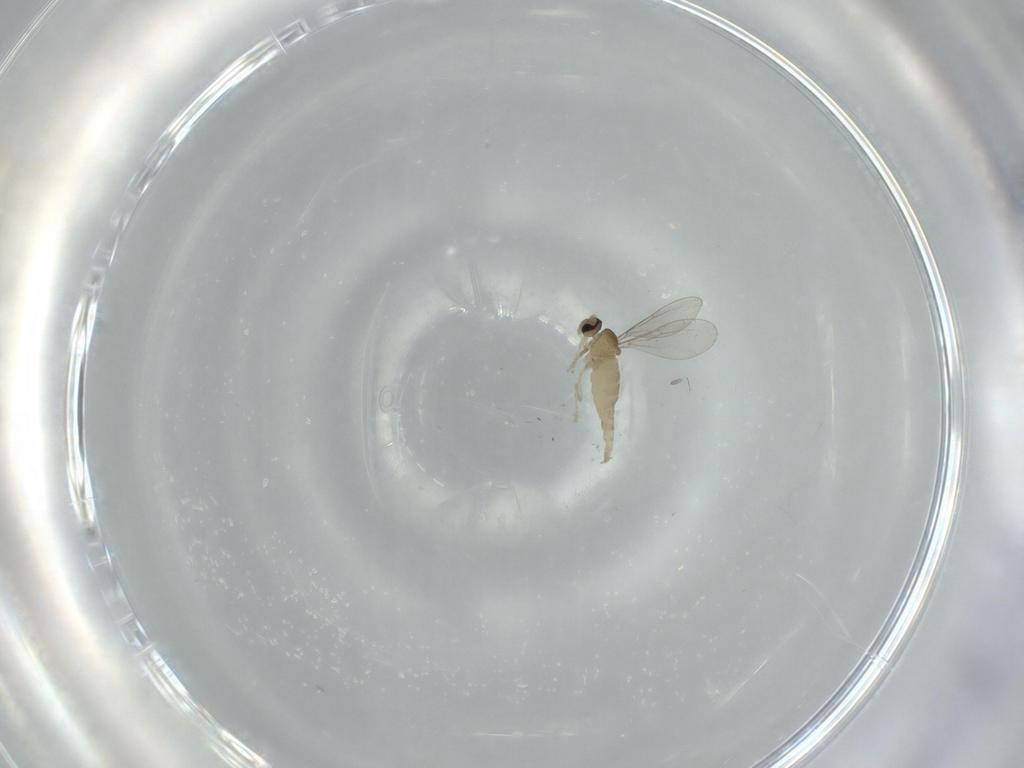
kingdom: Animalia
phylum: Arthropoda
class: Insecta
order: Diptera
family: Cecidomyiidae
